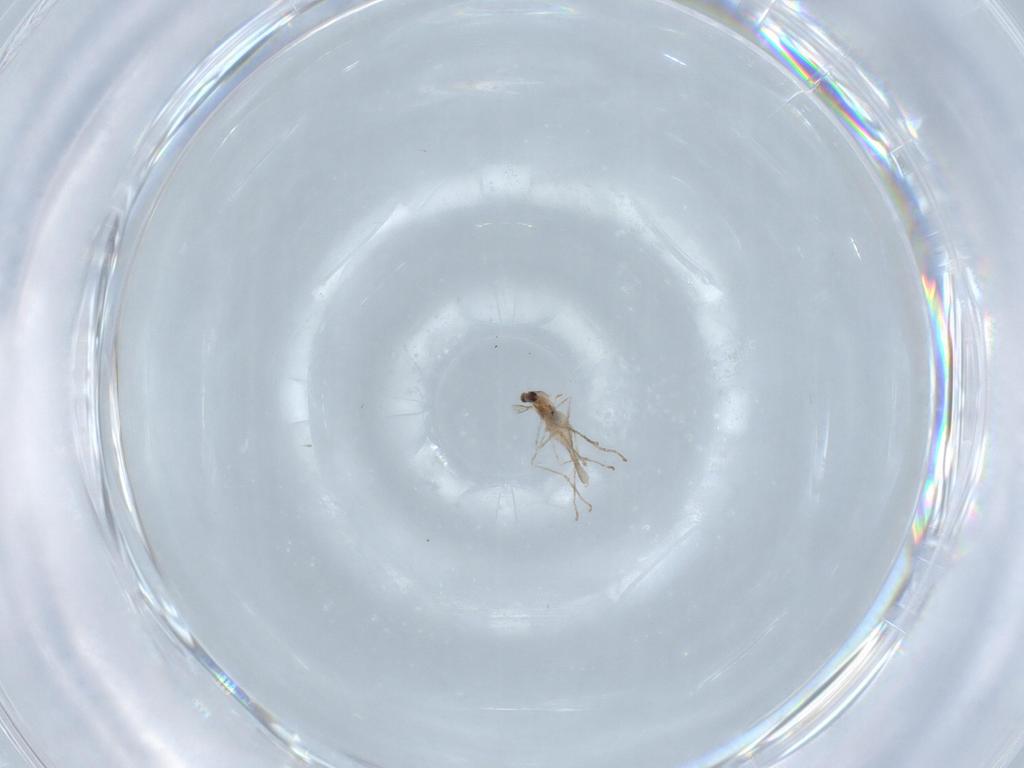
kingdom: Animalia
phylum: Arthropoda
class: Insecta
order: Diptera
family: Cecidomyiidae
